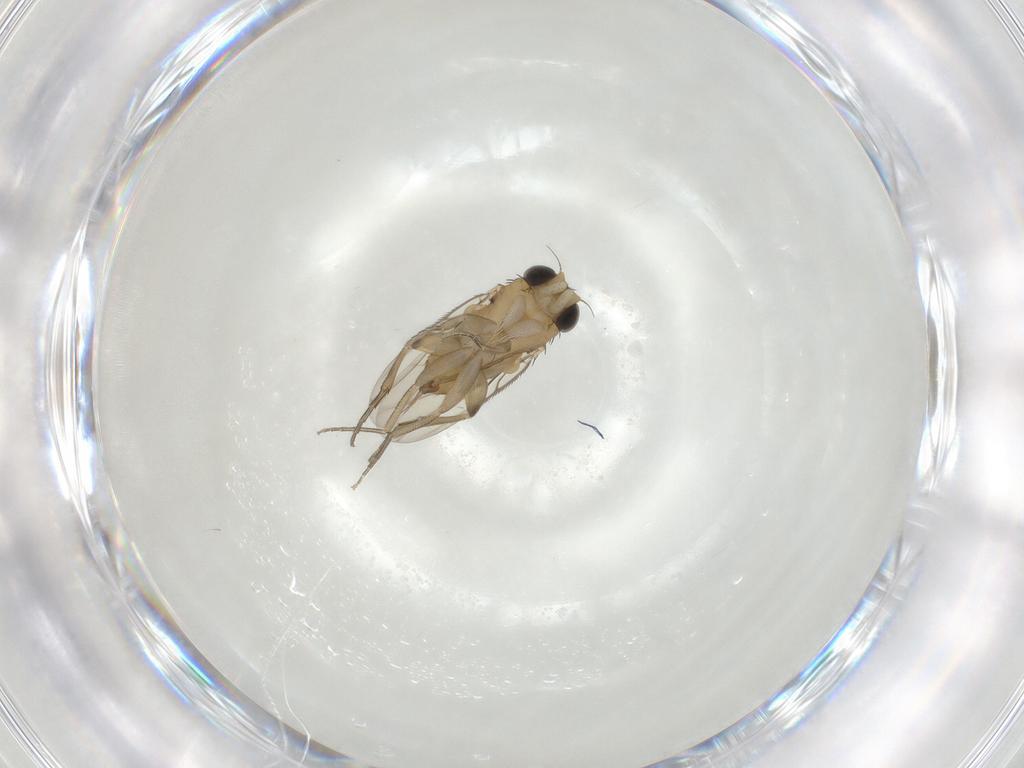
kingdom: Animalia
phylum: Arthropoda
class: Insecta
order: Diptera
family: Phoridae
